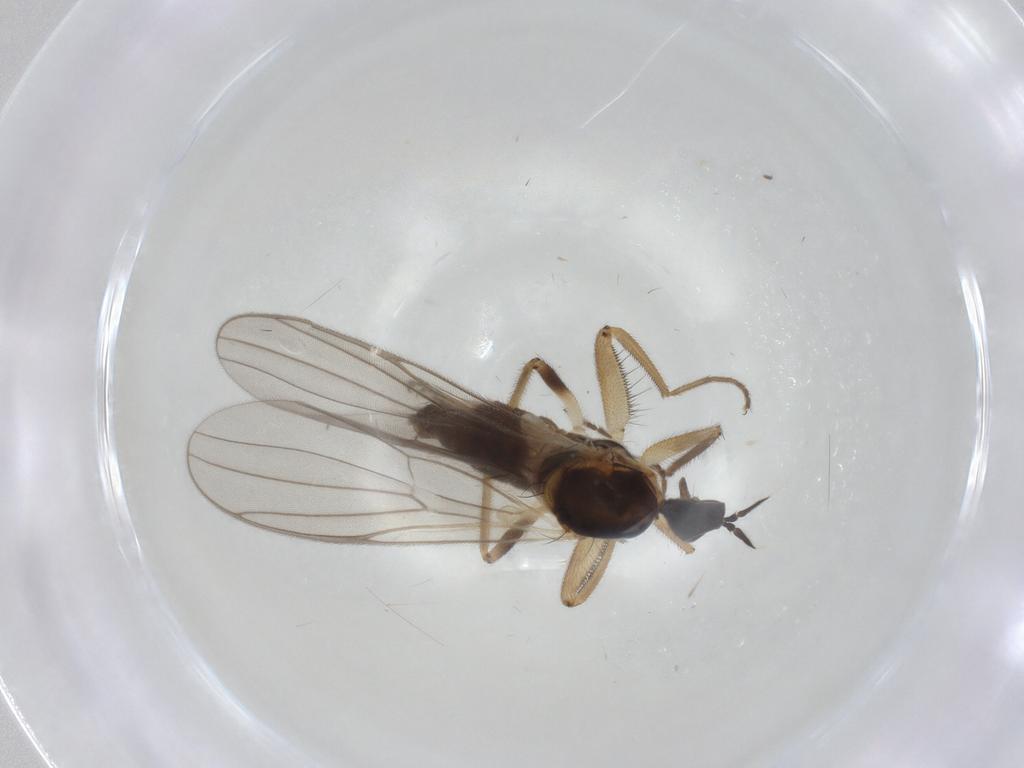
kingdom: Animalia
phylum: Arthropoda
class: Insecta
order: Diptera
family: Hybotidae
